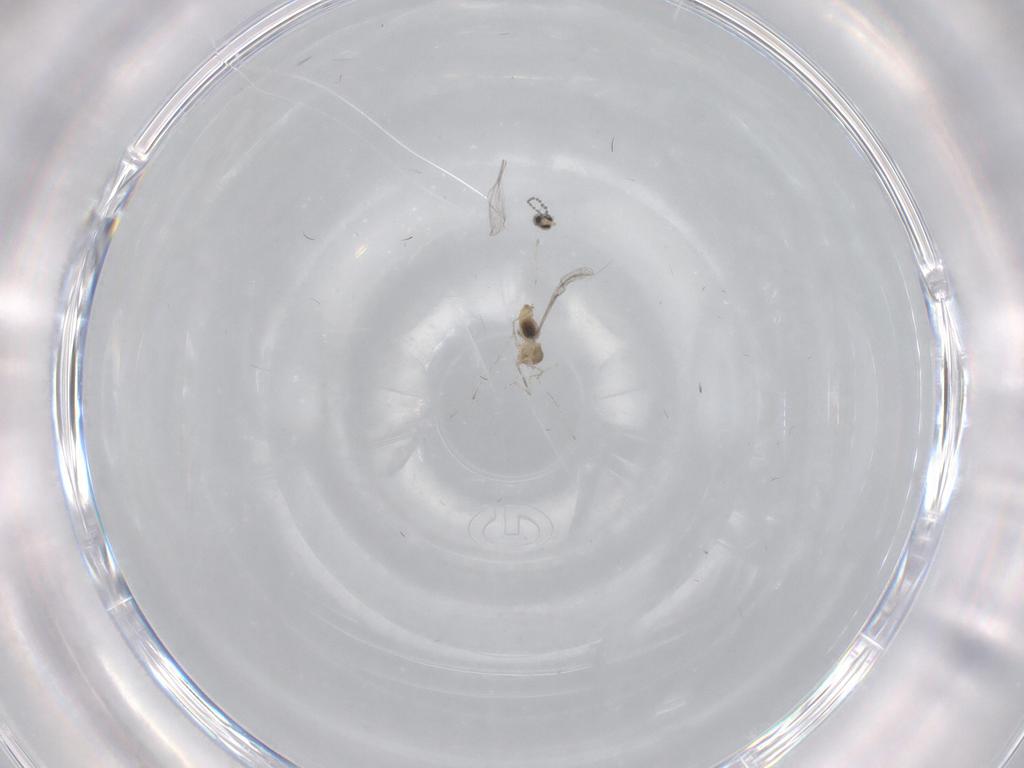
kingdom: Animalia
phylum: Arthropoda
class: Insecta
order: Diptera
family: Cecidomyiidae
